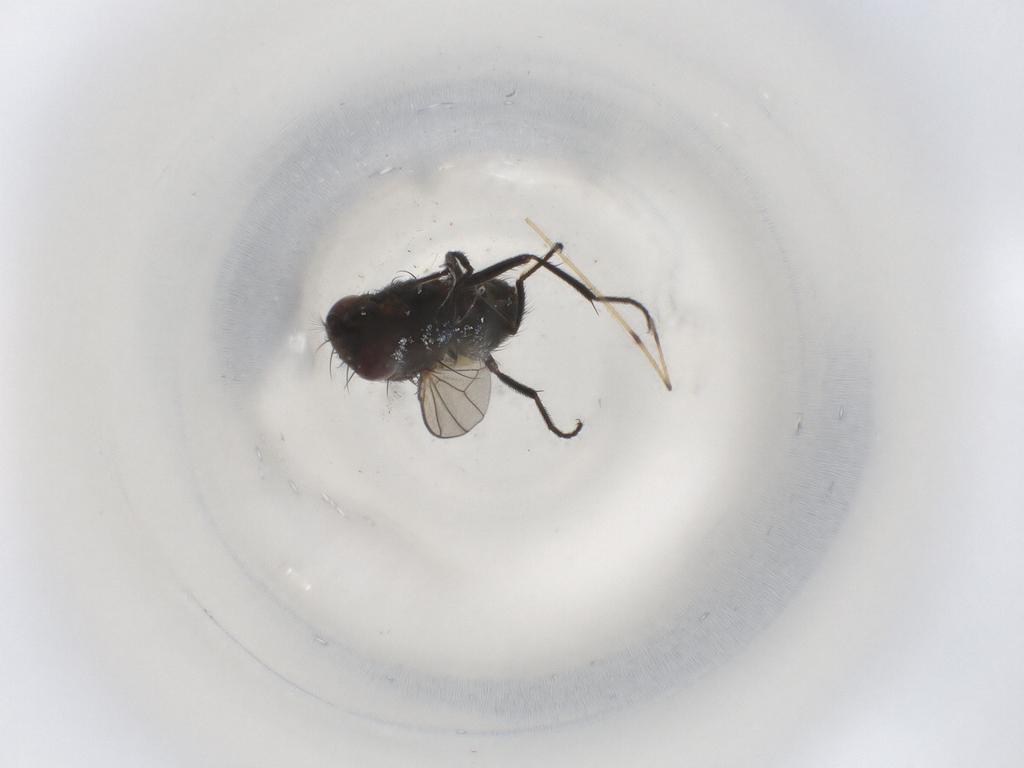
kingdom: Animalia
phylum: Arthropoda
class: Insecta
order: Diptera
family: Ephydridae
